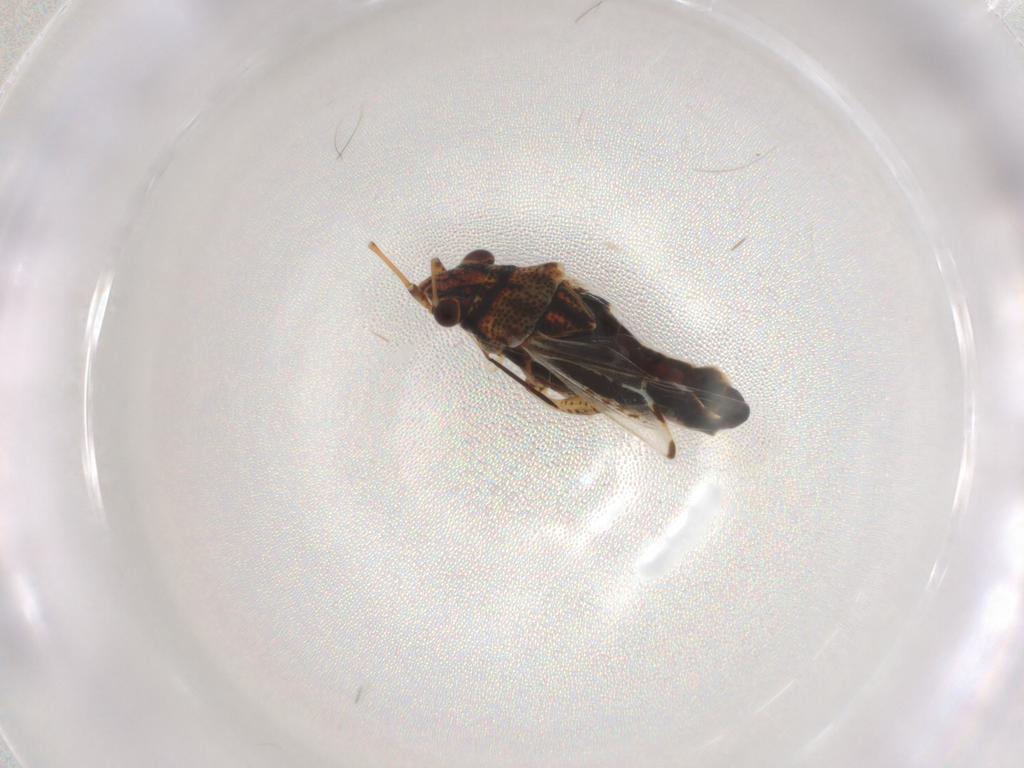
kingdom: Animalia
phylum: Arthropoda
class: Insecta
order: Hemiptera
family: Lygaeidae
